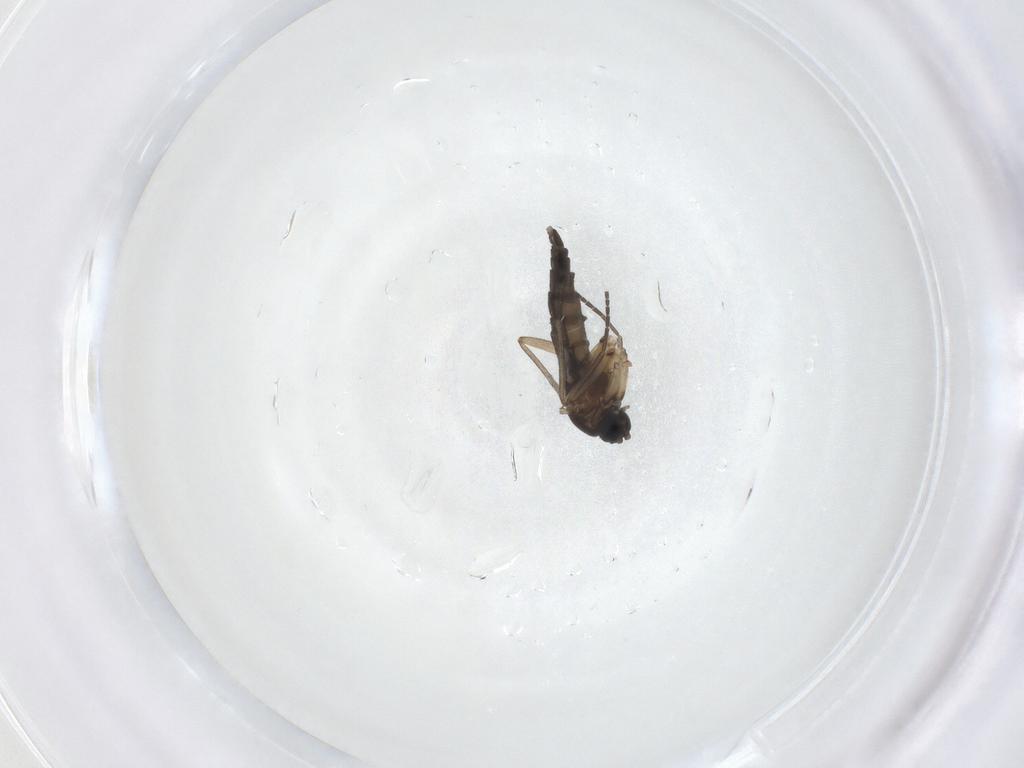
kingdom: Animalia
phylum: Arthropoda
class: Insecta
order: Diptera
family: Sciaridae
